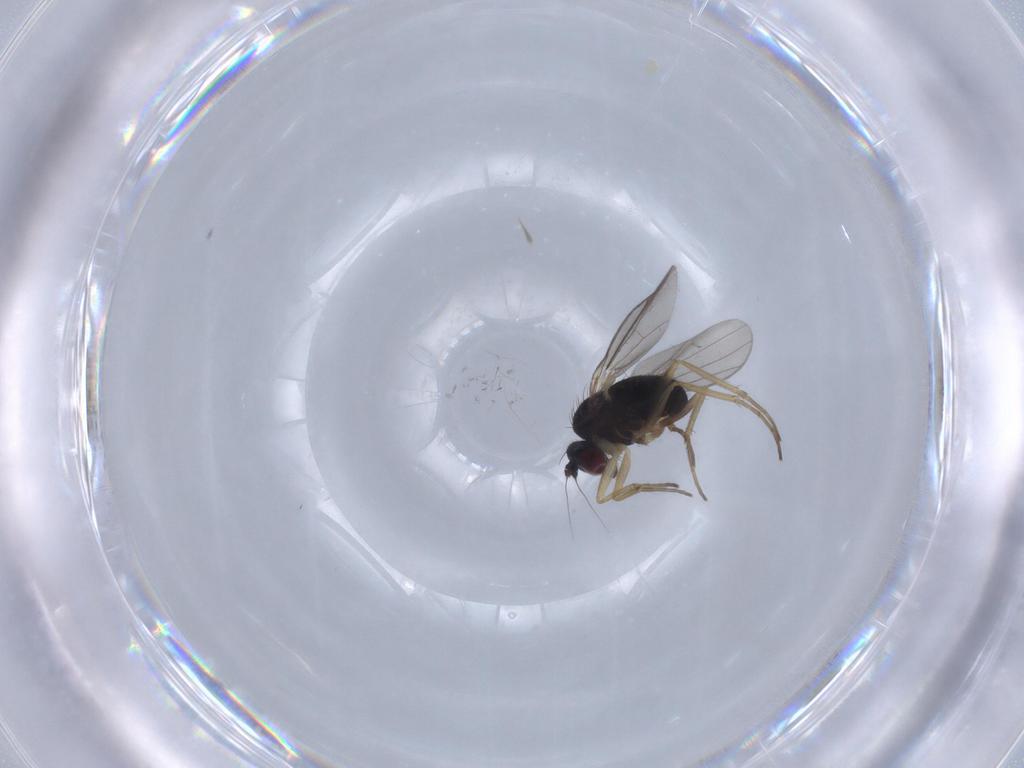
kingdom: Animalia
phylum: Arthropoda
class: Insecta
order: Diptera
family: Dolichopodidae
